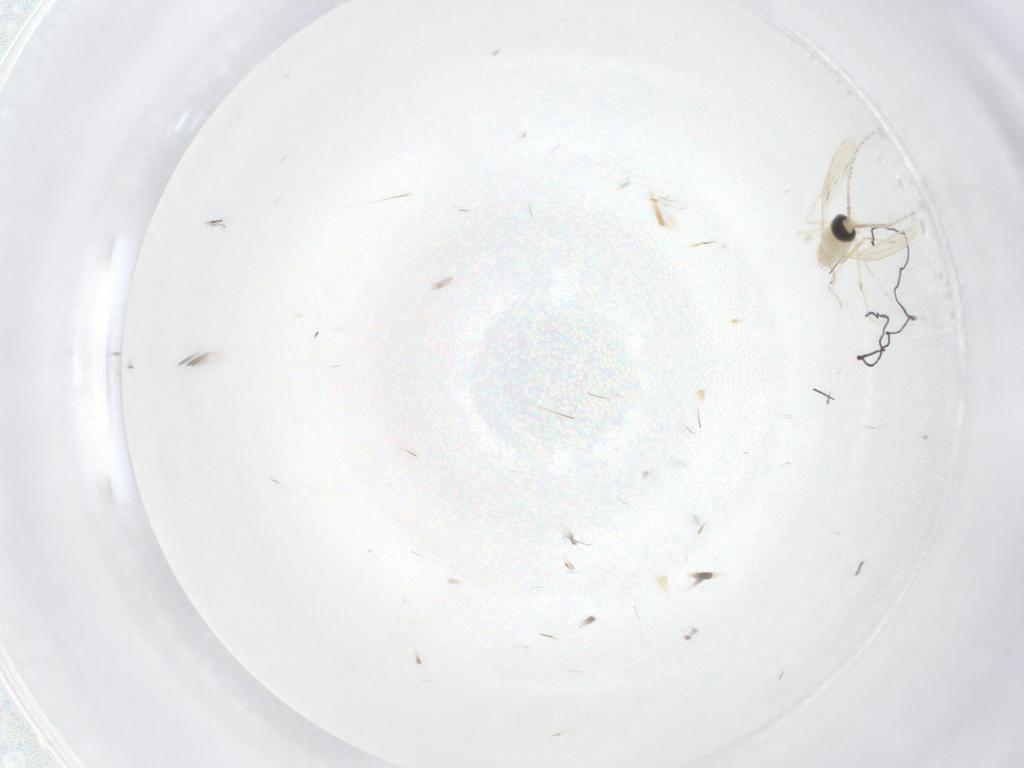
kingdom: Animalia
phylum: Arthropoda
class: Insecta
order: Diptera
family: Cecidomyiidae
